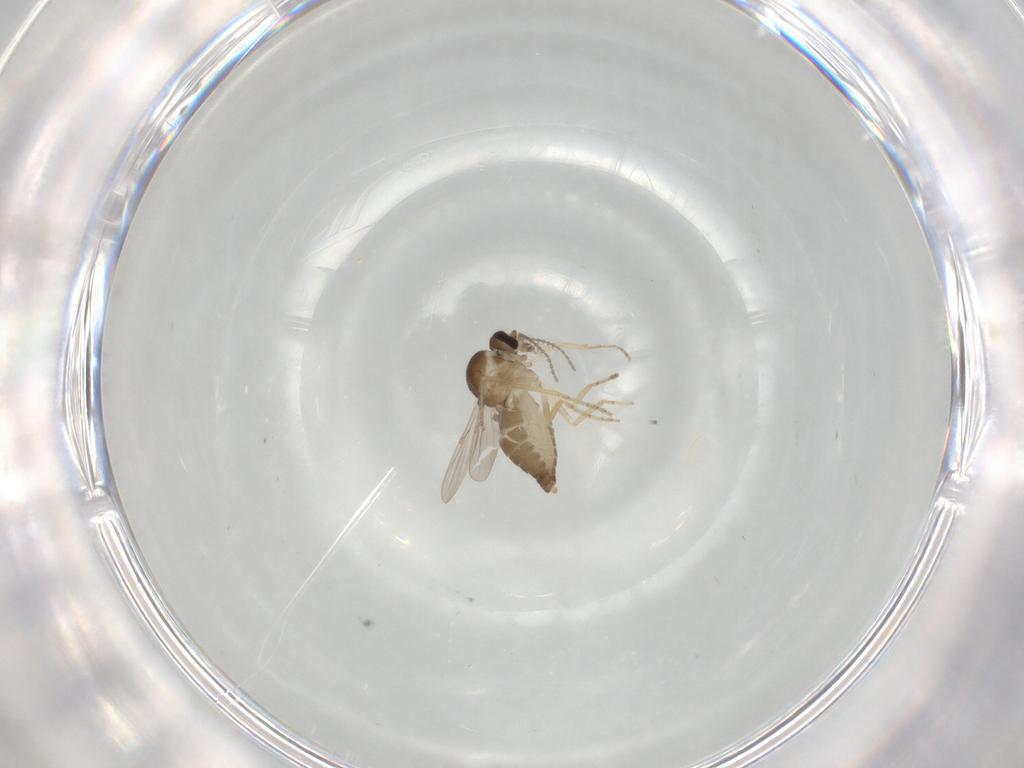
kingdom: Animalia
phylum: Arthropoda
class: Insecta
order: Diptera
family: Ceratopogonidae
